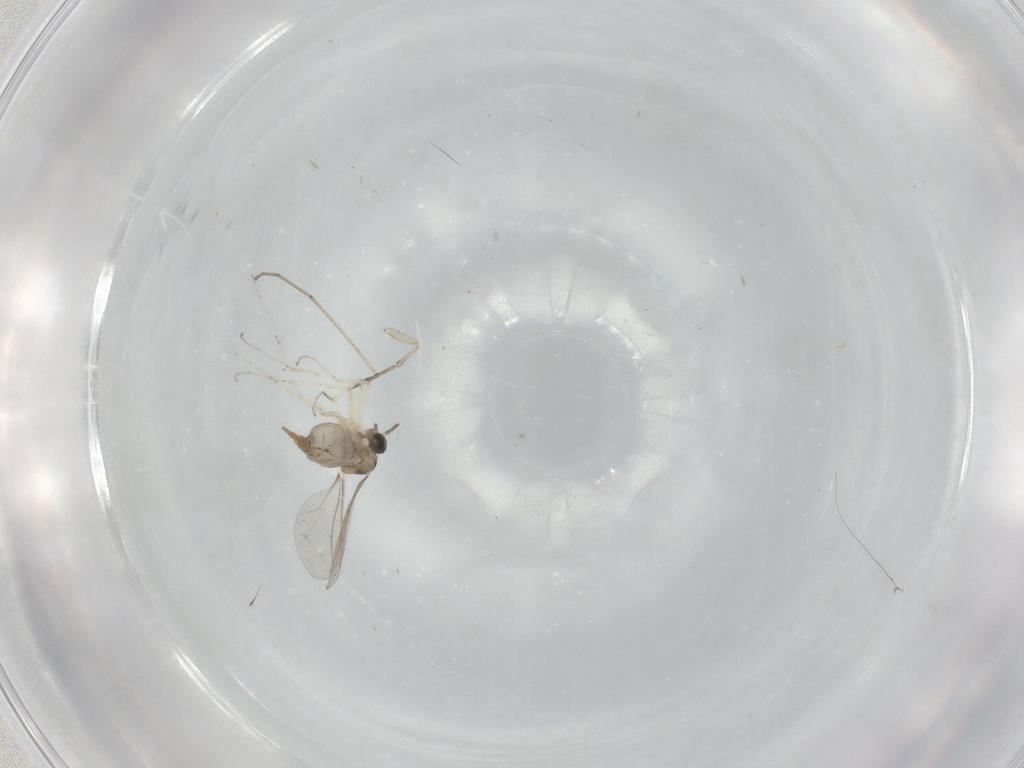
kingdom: Animalia
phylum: Arthropoda
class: Insecta
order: Diptera
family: Cecidomyiidae
